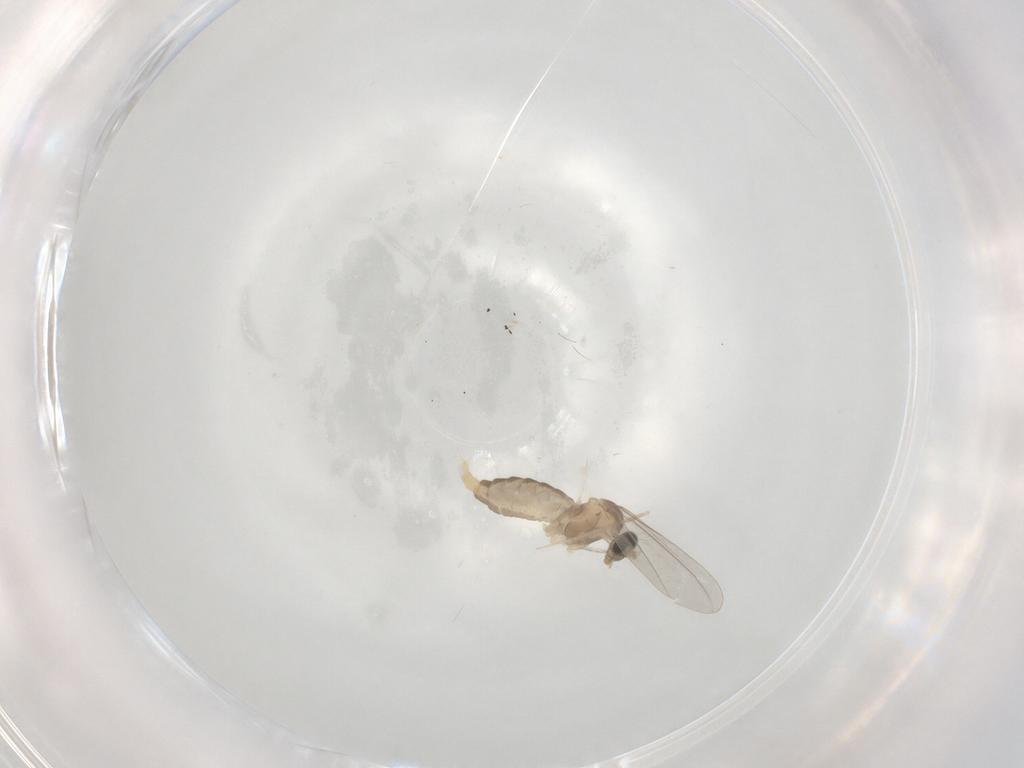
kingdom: Animalia
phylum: Arthropoda
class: Insecta
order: Diptera
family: Cecidomyiidae
